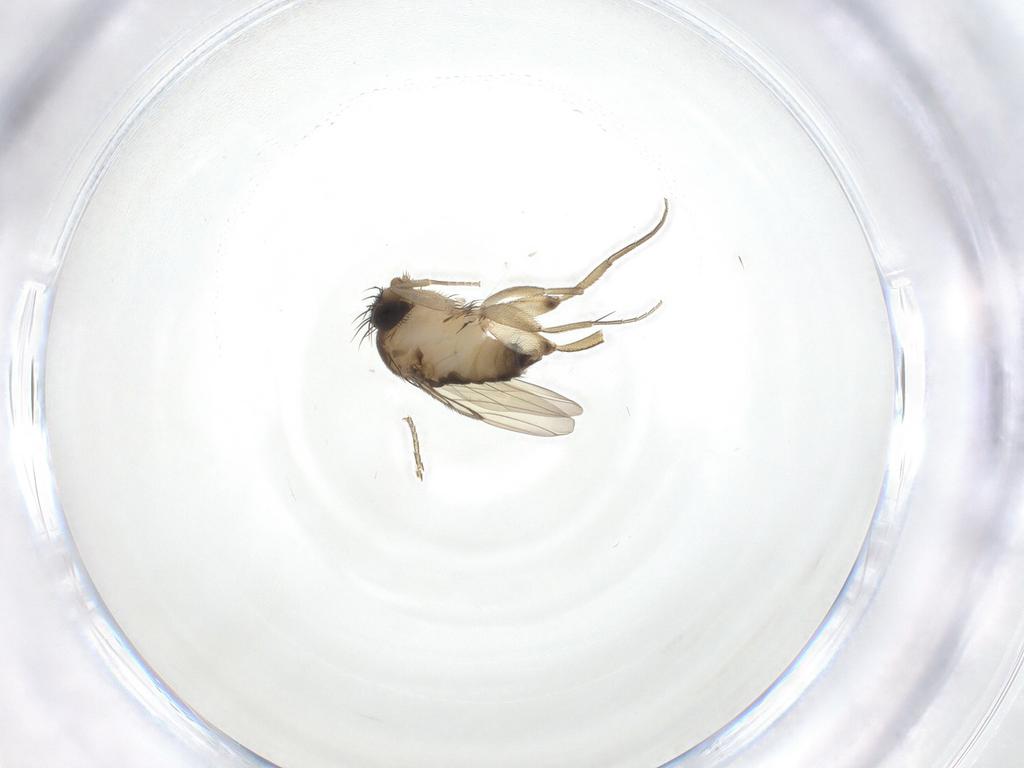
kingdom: Animalia
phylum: Arthropoda
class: Insecta
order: Diptera
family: Phoridae
